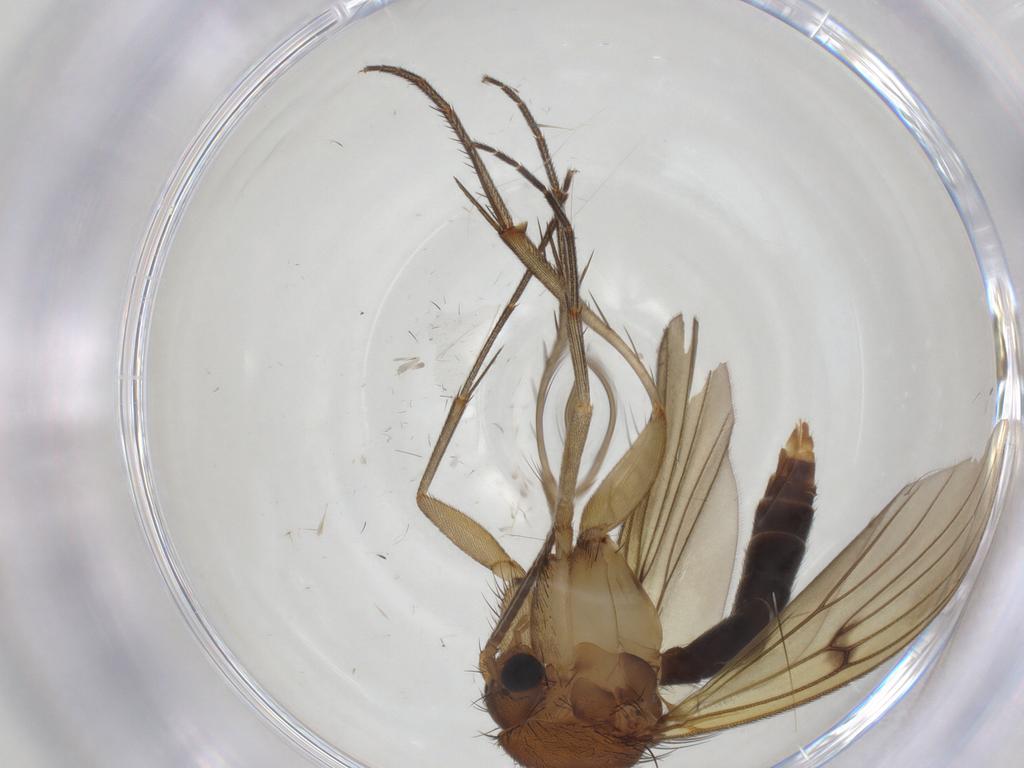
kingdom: Animalia
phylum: Arthropoda
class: Insecta
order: Diptera
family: Mycetophilidae
